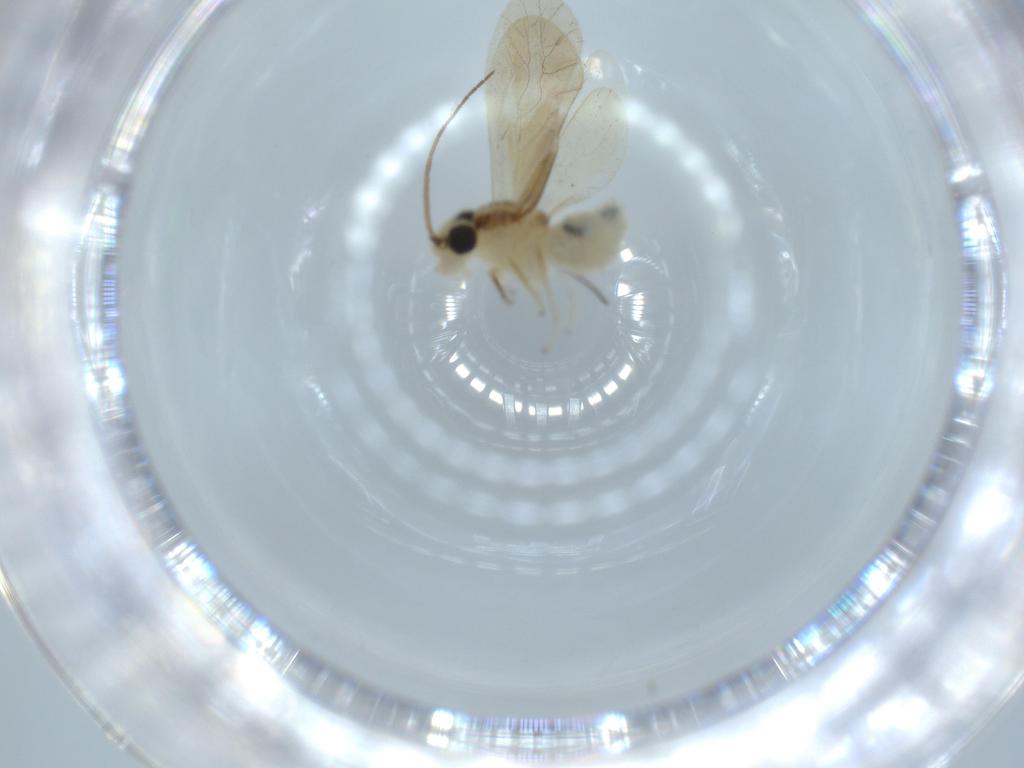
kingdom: Animalia
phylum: Arthropoda
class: Insecta
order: Psocodea
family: Caeciliusidae
